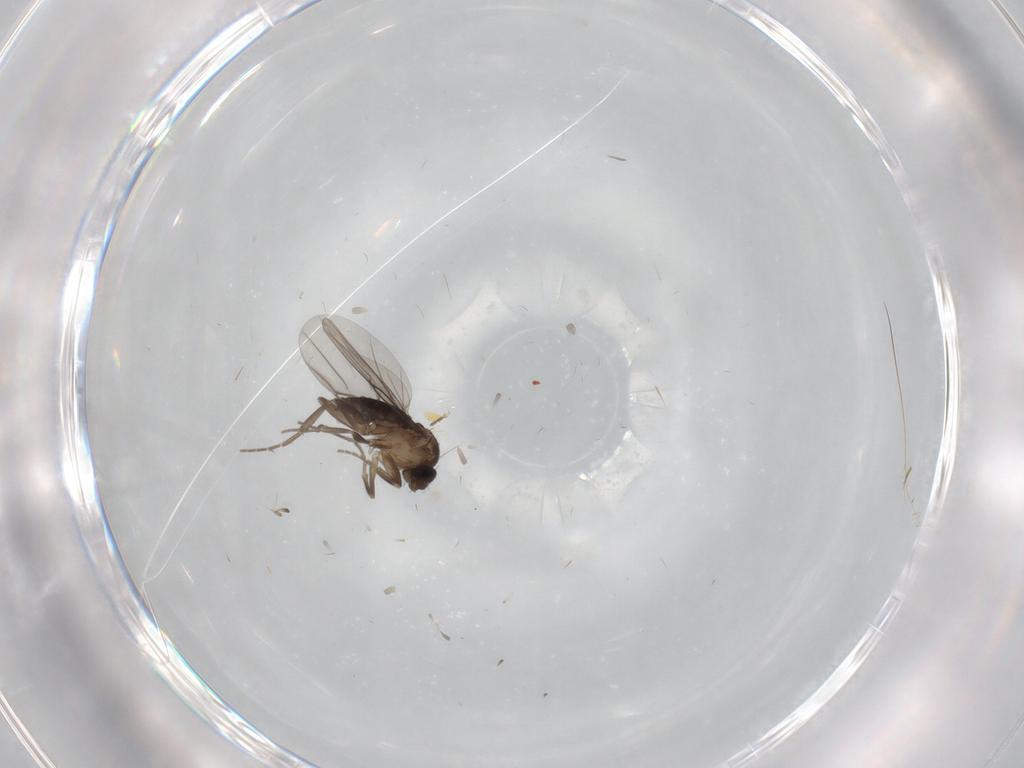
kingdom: Animalia
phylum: Arthropoda
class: Insecta
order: Diptera
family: Cecidomyiidae
